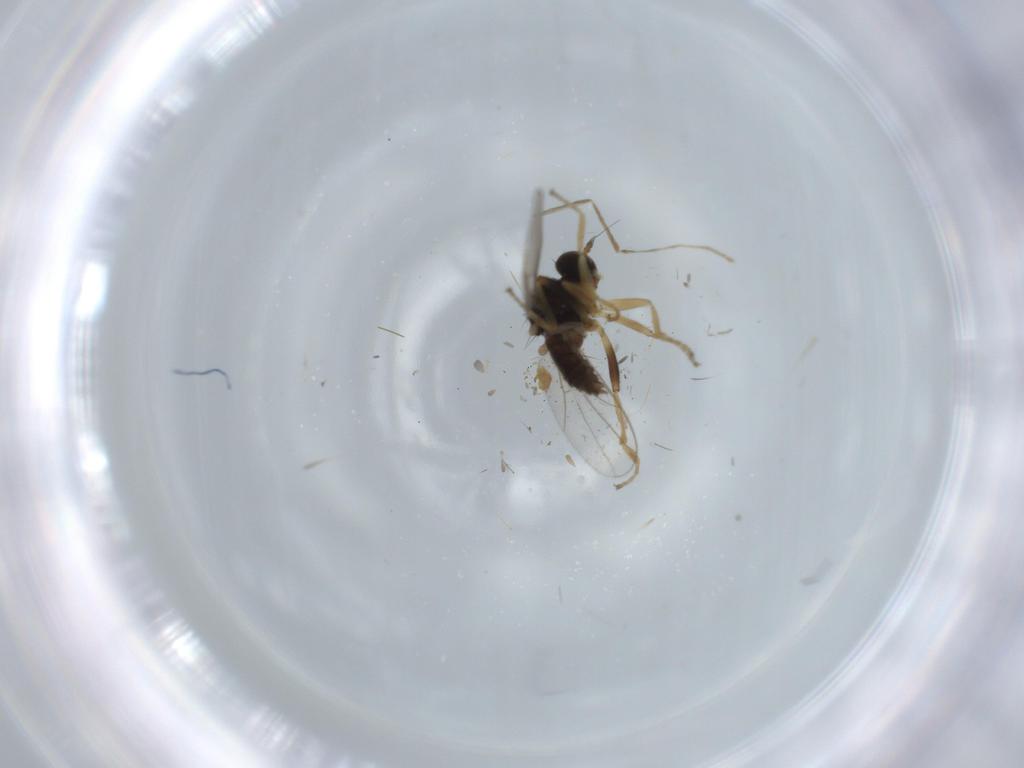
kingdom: Animalia
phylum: Arthropoda
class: Insecta
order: Diptera
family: Hybotidae
